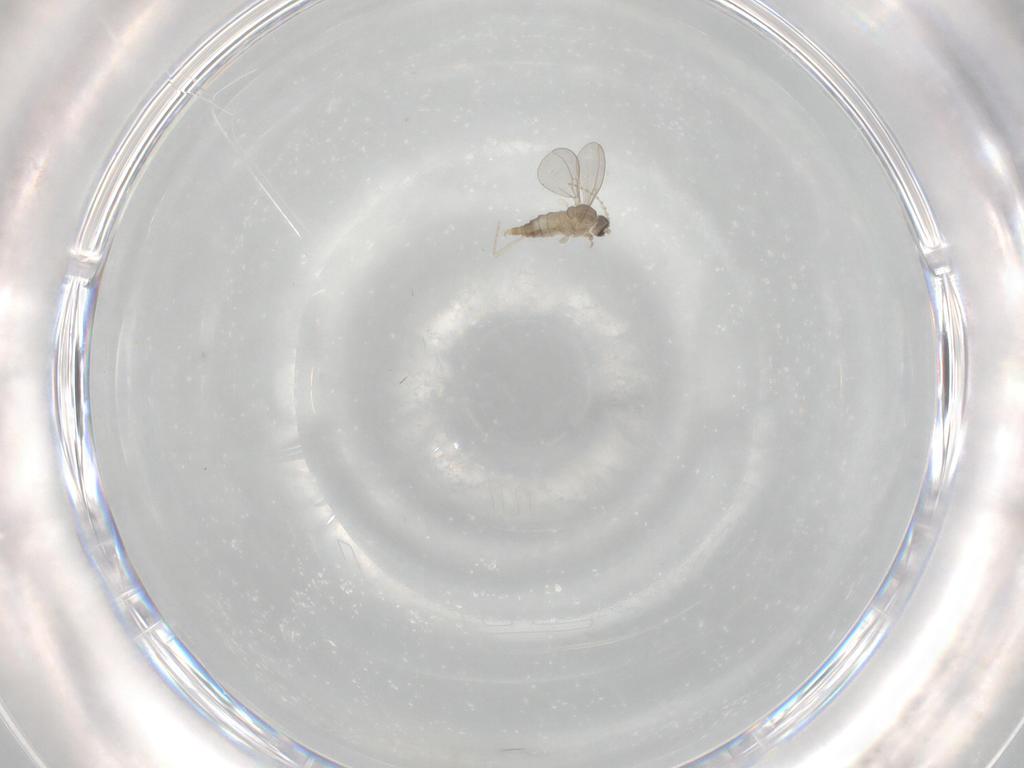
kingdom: Animalia
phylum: Arthropoda
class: Insecta
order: Diptera
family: Cecidomyiidae
